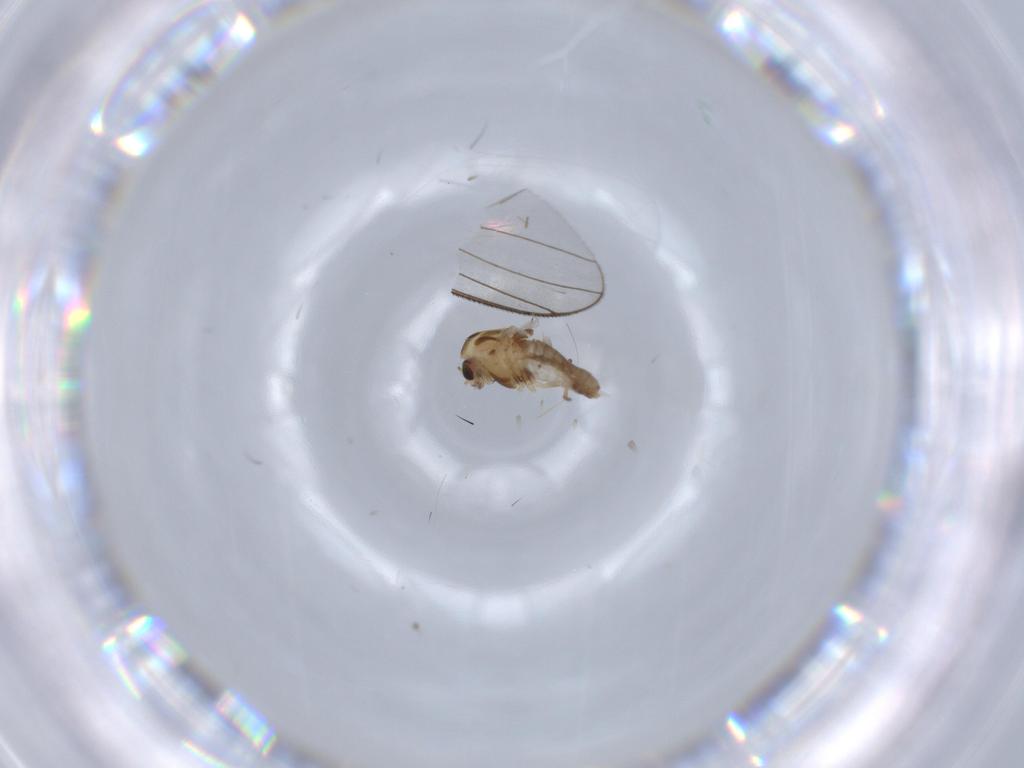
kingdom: Animalia
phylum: Arthropoda
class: Insecta
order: Diptera
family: Chironomidae
